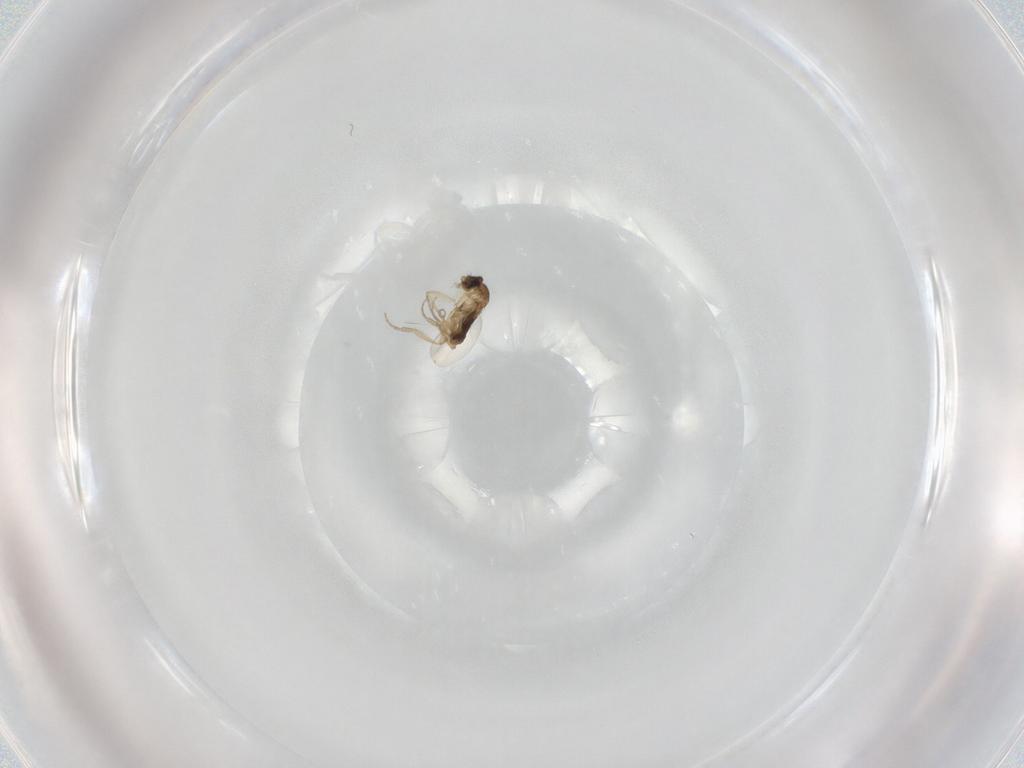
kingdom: Animalia
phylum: Arthropoda
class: Insecta
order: Diptera
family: Phoridae
